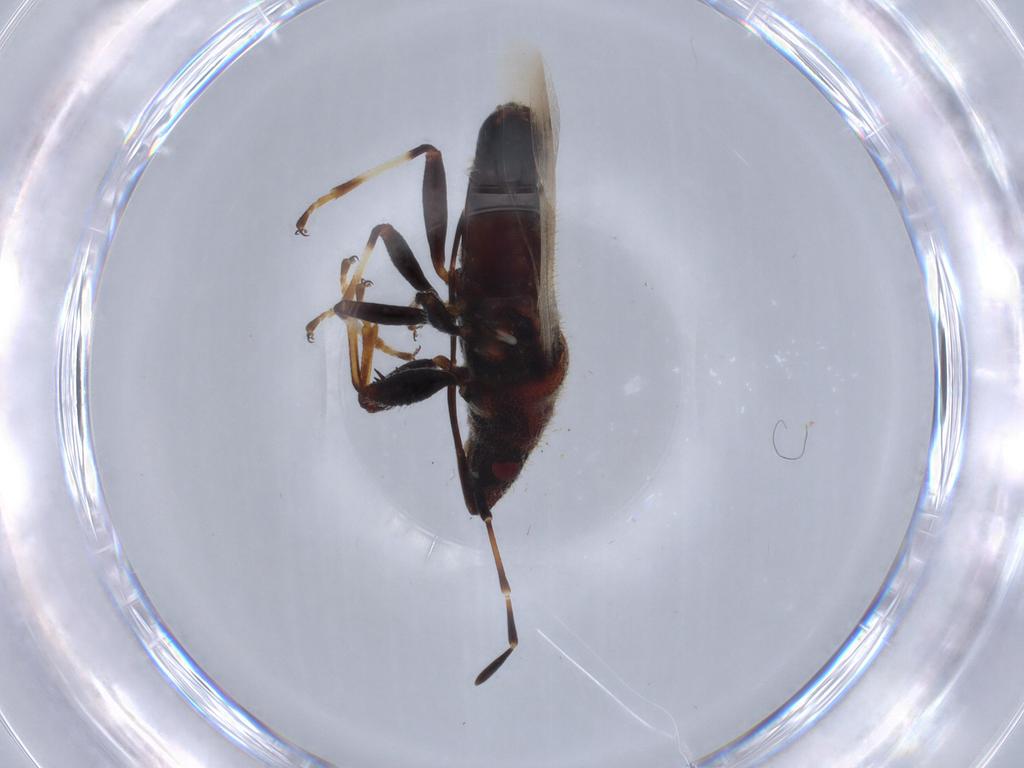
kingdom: Animalia
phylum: Arthropoda
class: Insecta
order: Hemiptera
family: Oxycarenidae
